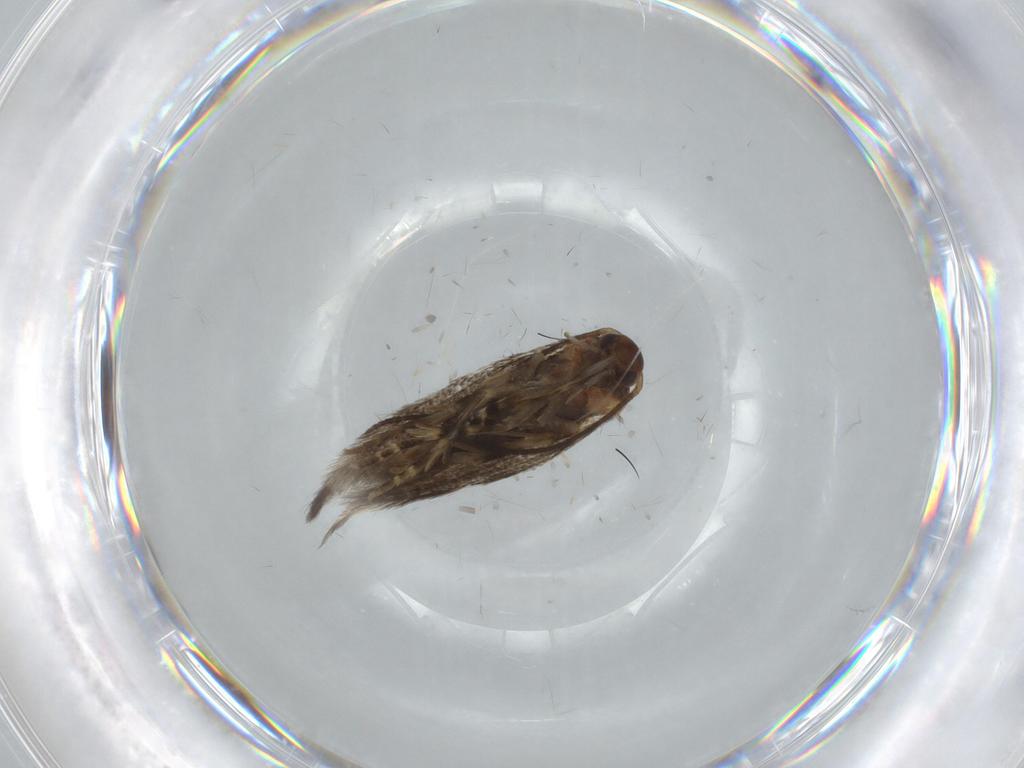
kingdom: Animalia
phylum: Arthropoda
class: Insecta
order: Lepidoptera
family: Elachistidae
